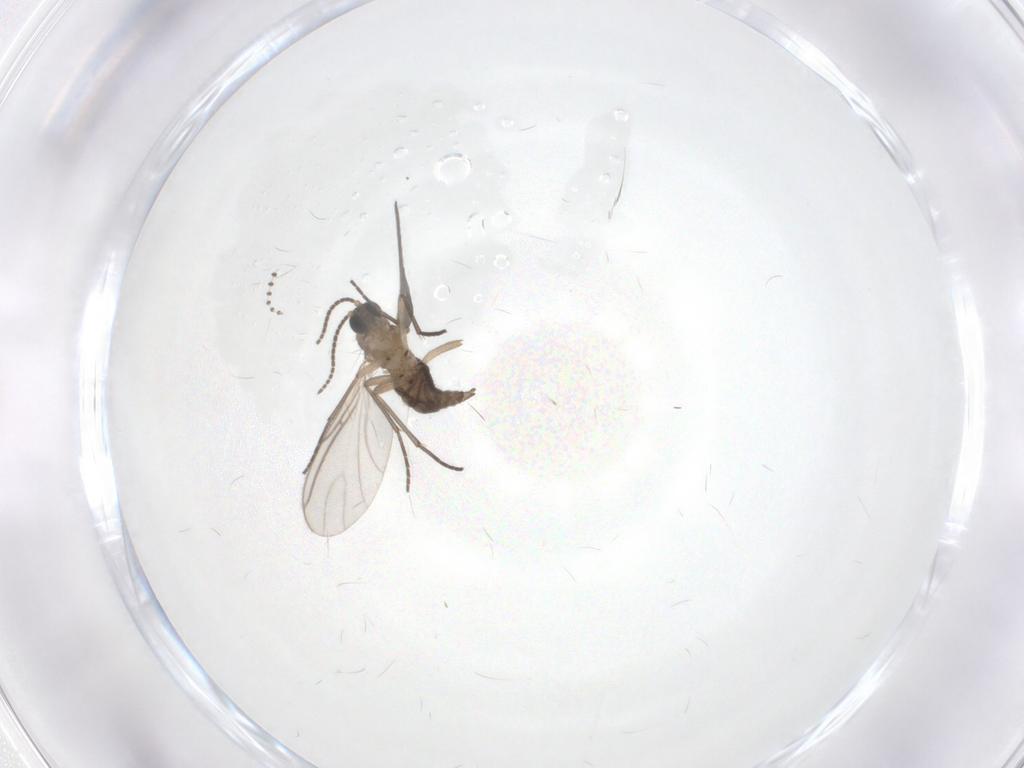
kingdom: Animalia
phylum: Arthropoda
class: Insecta
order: Diptera
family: Sciaridae
